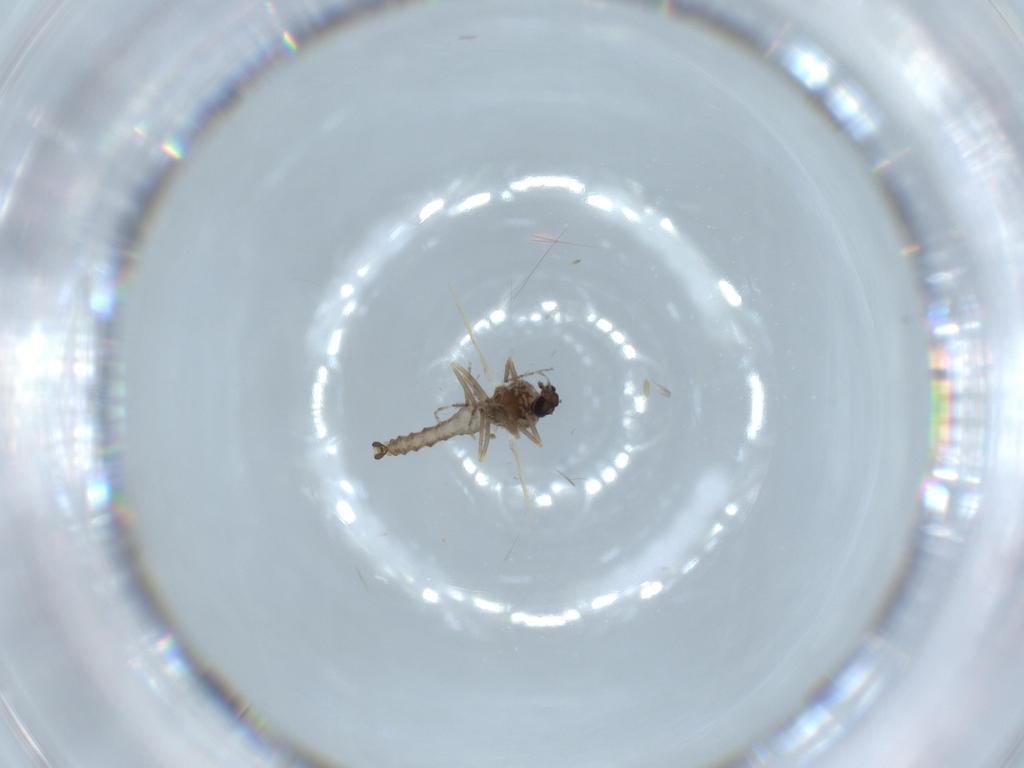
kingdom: Animalia
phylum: Arthropoda
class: Insecta
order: Diptera
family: Ceratopogonidae
